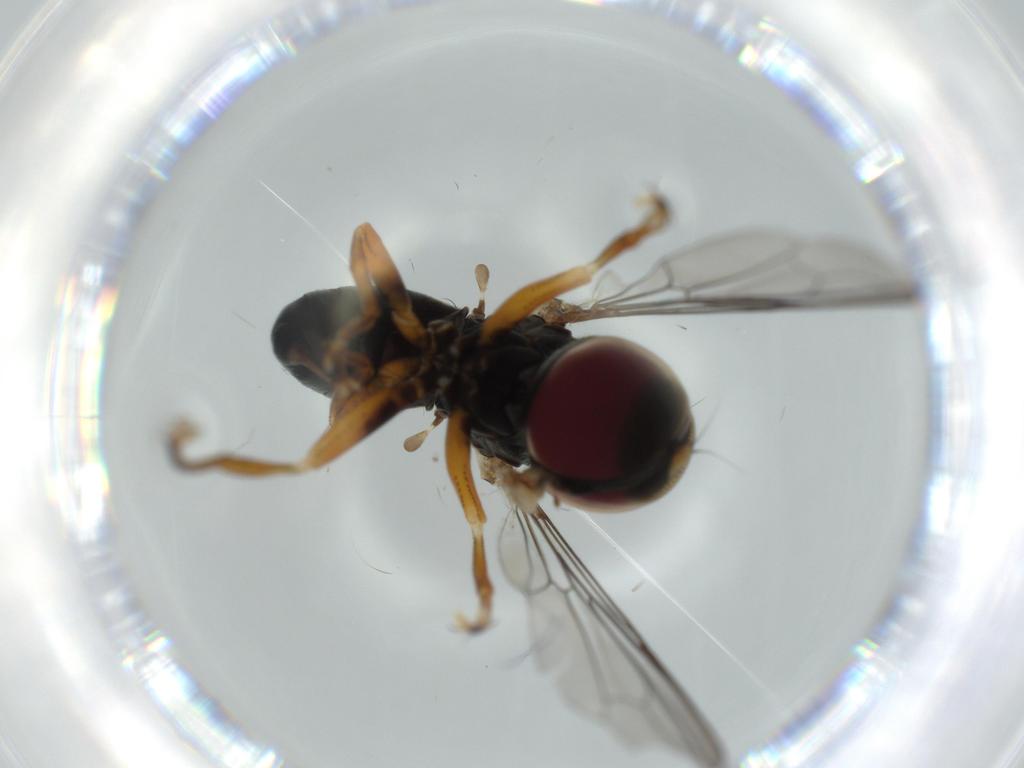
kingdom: Animalia
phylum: Arthropoda
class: Insecta
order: Diptera
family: Pipunculidae
